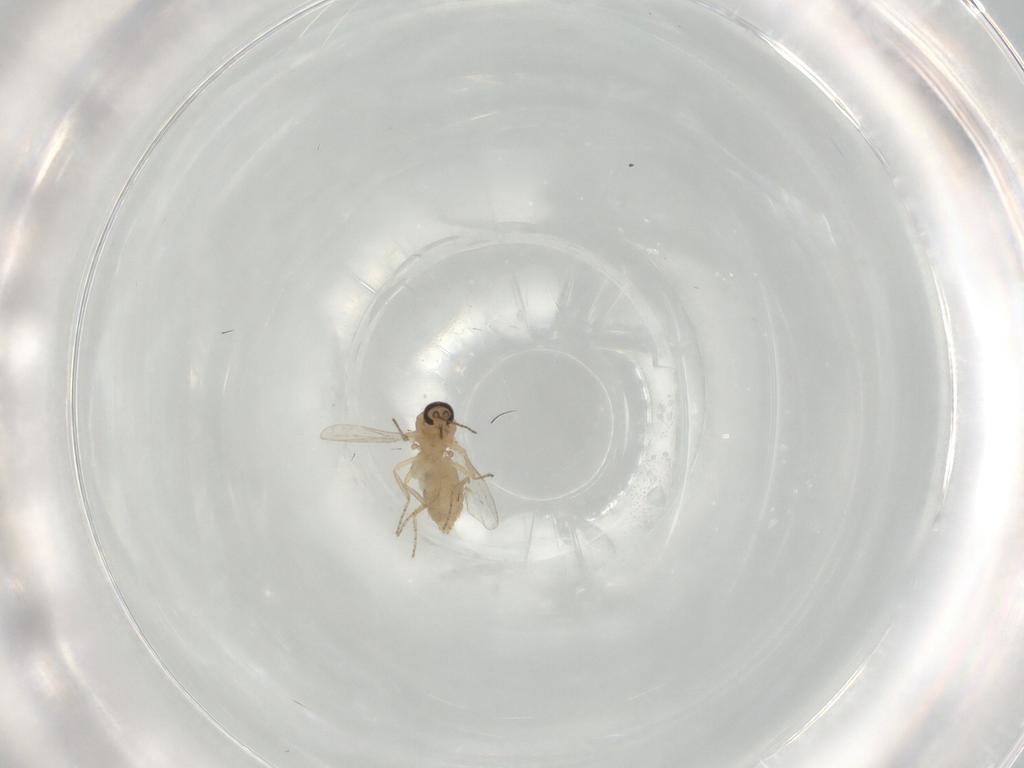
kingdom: Animalia
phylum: Arthropoda
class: Insecta
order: Diptera
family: Ceratopogonidae
